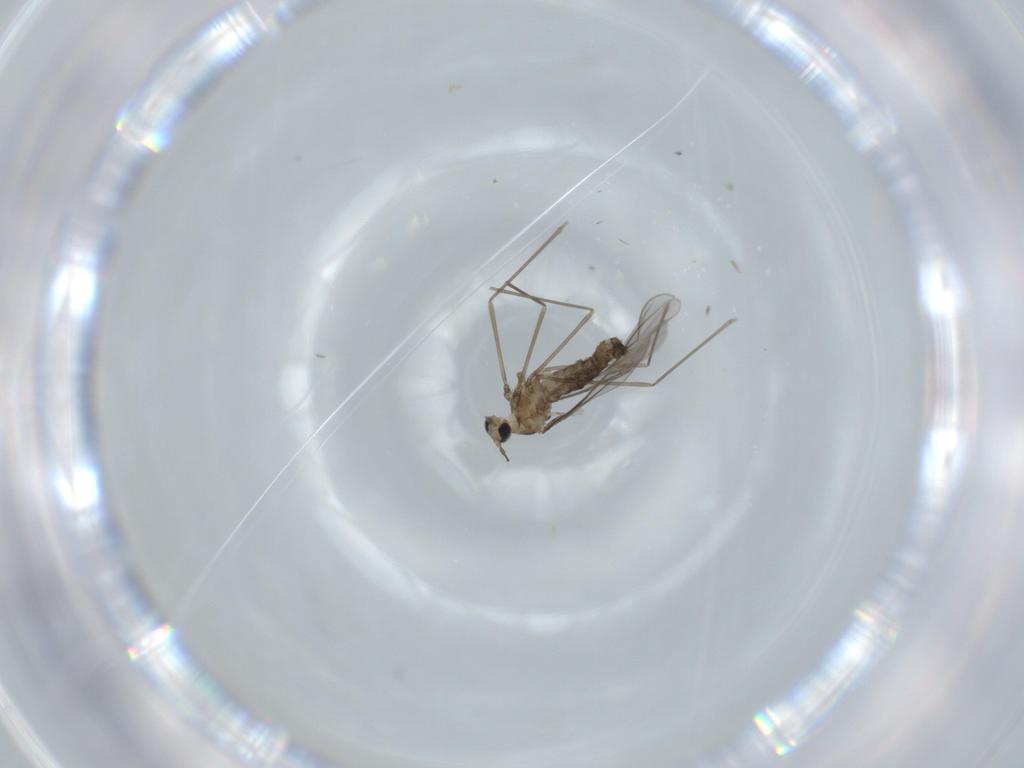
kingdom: Animalia
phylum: Arthropoda
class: Insecta
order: Diptera
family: Cecidomyiidae
